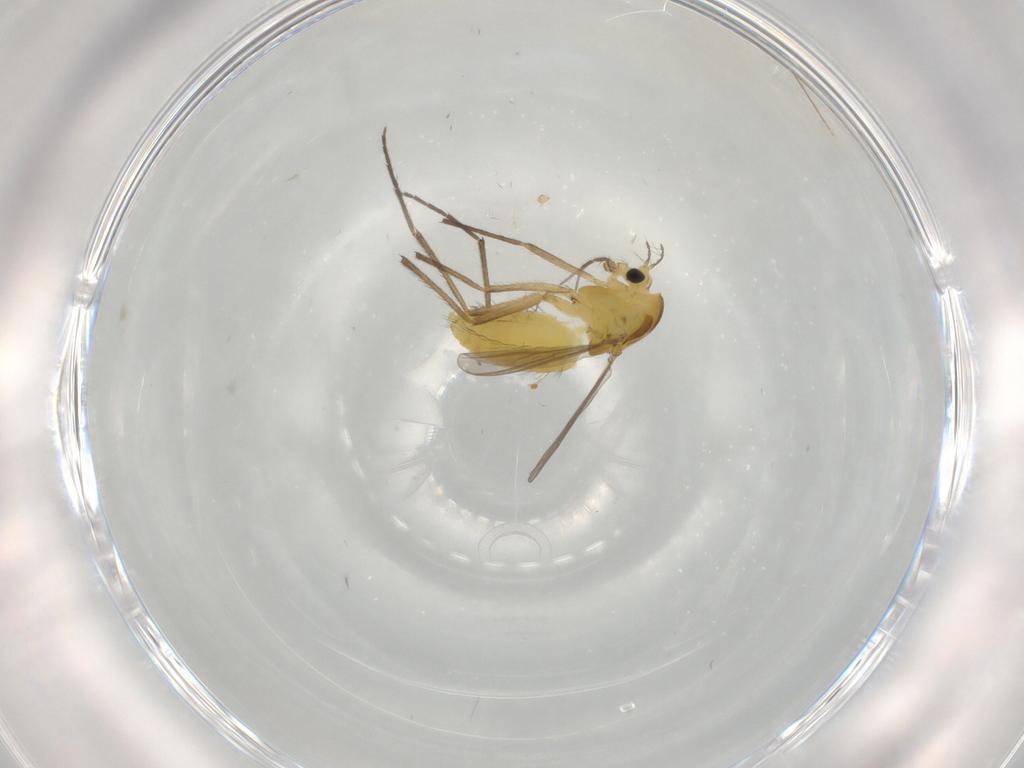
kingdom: Animalia
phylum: Arthropoda
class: Insecta
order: Diptera
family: Chironomidae
